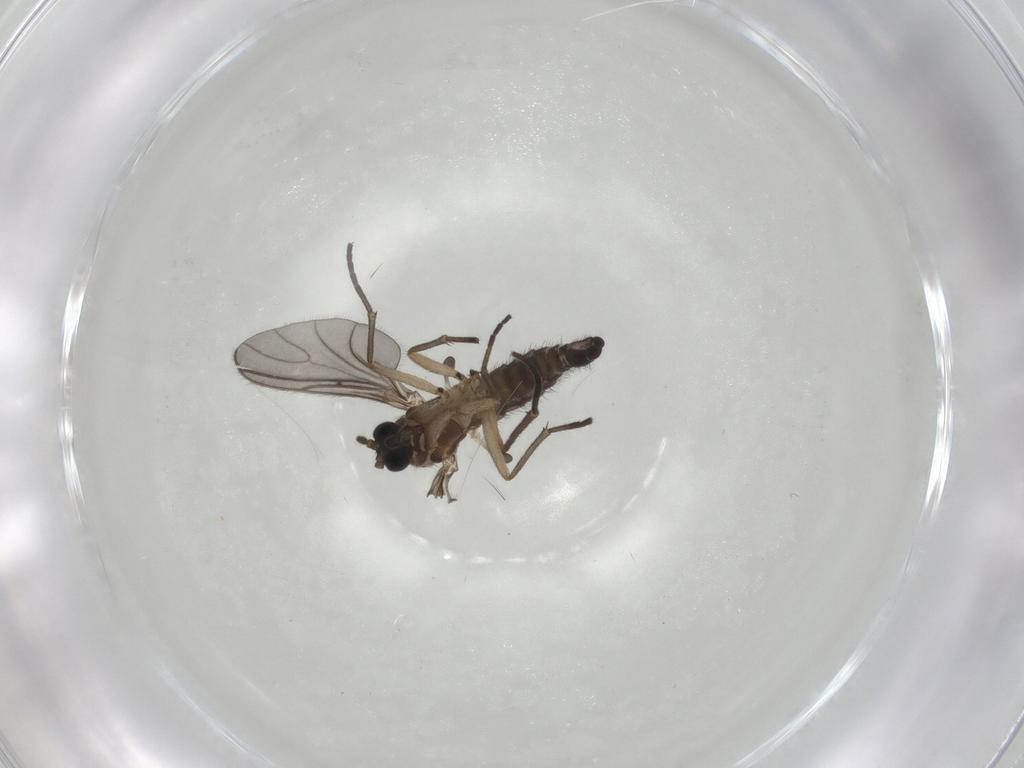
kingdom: Animalia
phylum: Arthropoda
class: Insecta
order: Diptera
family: Sciaridae
